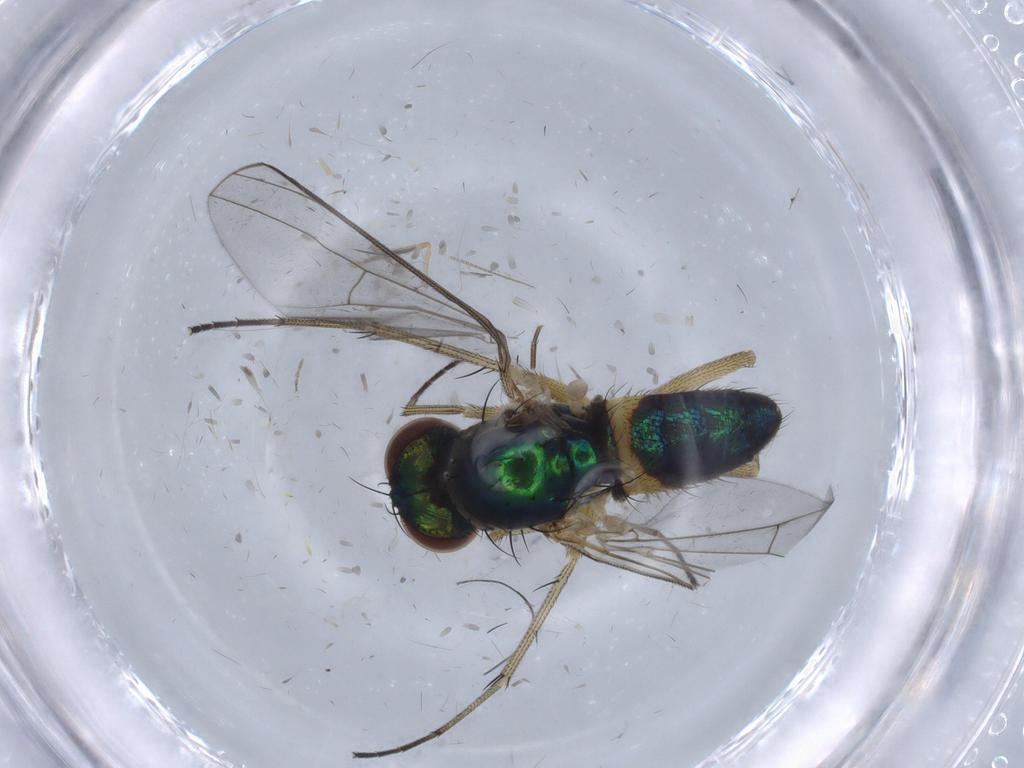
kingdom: Animalia
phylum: Arthropoda
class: Insecta
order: Diptera
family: Dolichopodidae
